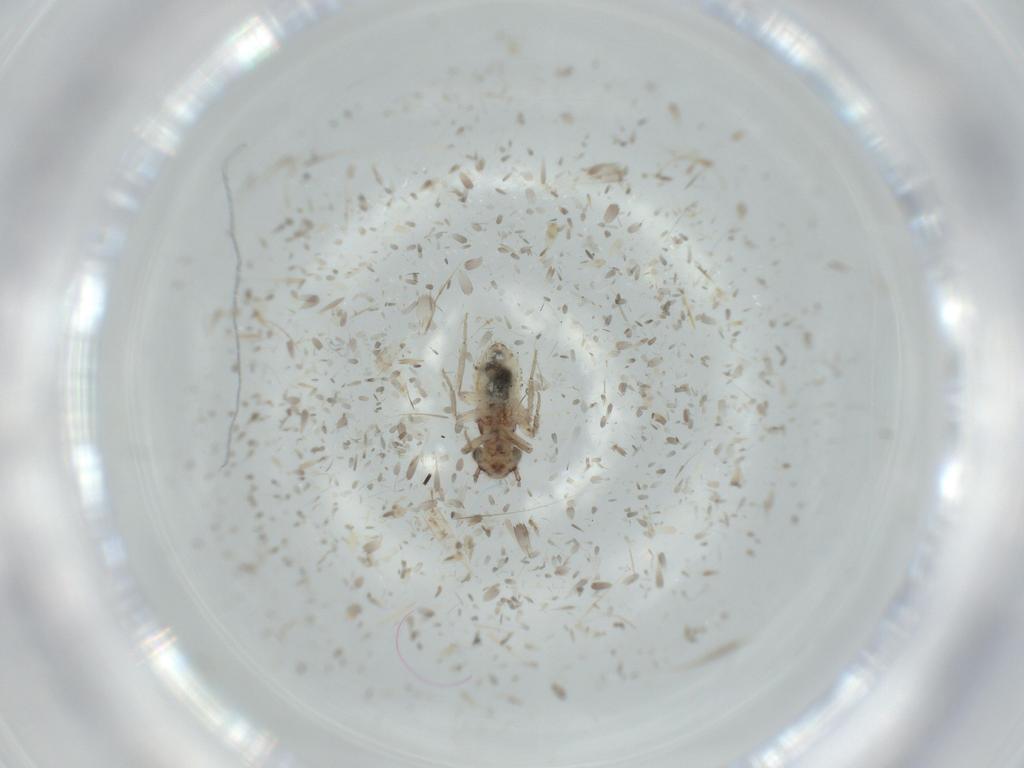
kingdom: Animalia
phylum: Arthropoda
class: Insecta
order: Psocodea
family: Lepidopsocidae
